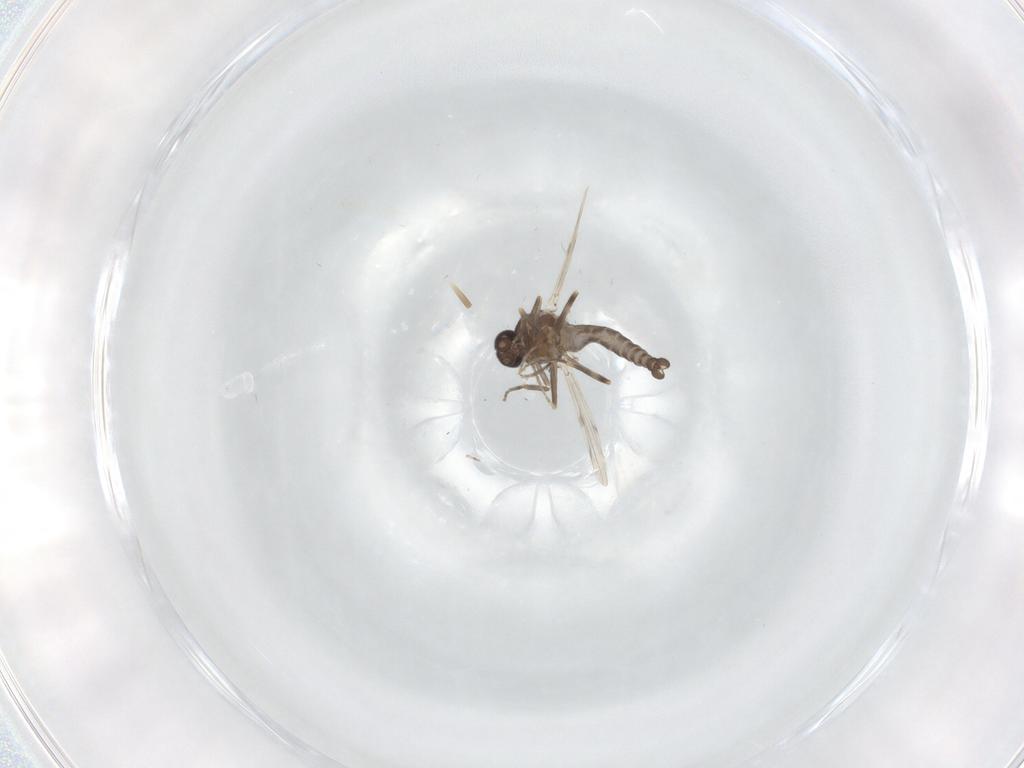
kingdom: Animalia
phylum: Arthropoda
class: Insecta
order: Diptera
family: Ceratopogonidae
